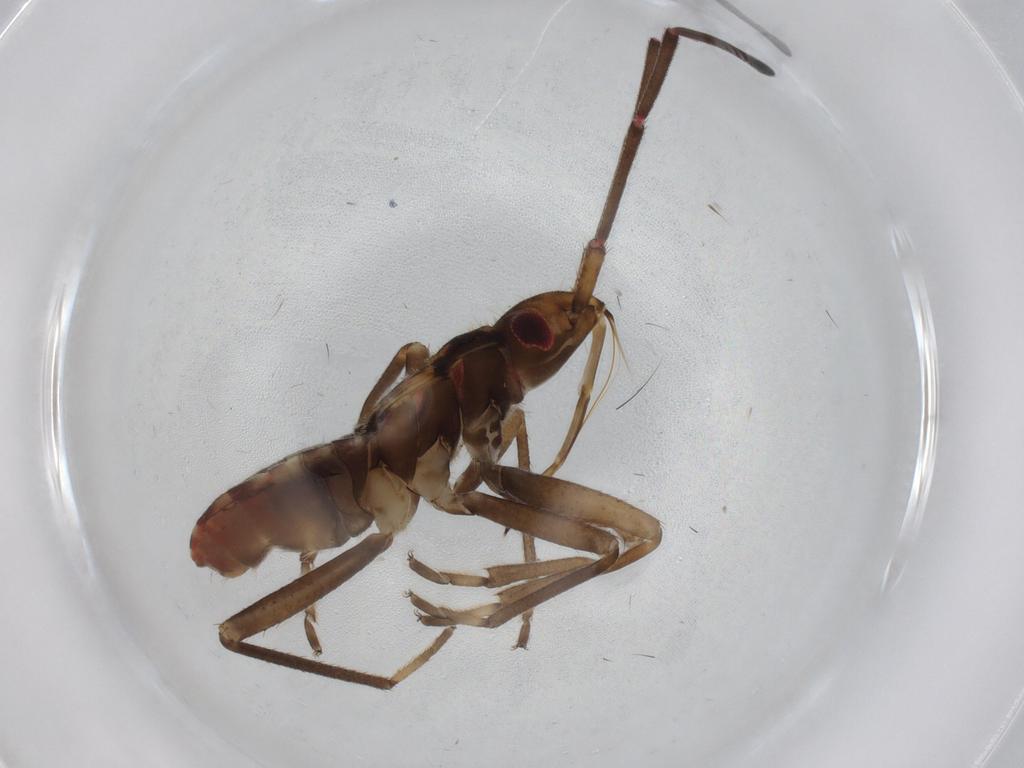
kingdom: Animalia
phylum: Arthropoda
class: Insecta
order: Hemiptera
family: Rhyparochromidae
